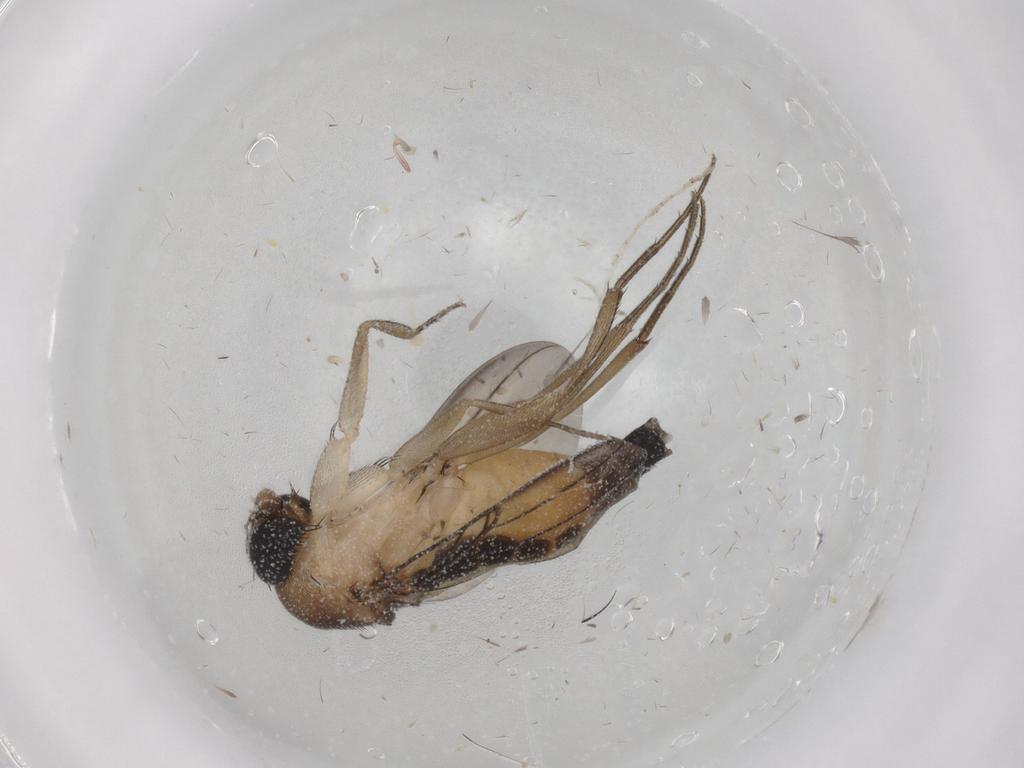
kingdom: Animalia
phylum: Arthropoda
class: Insecta
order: Diptera
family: Phoridae
